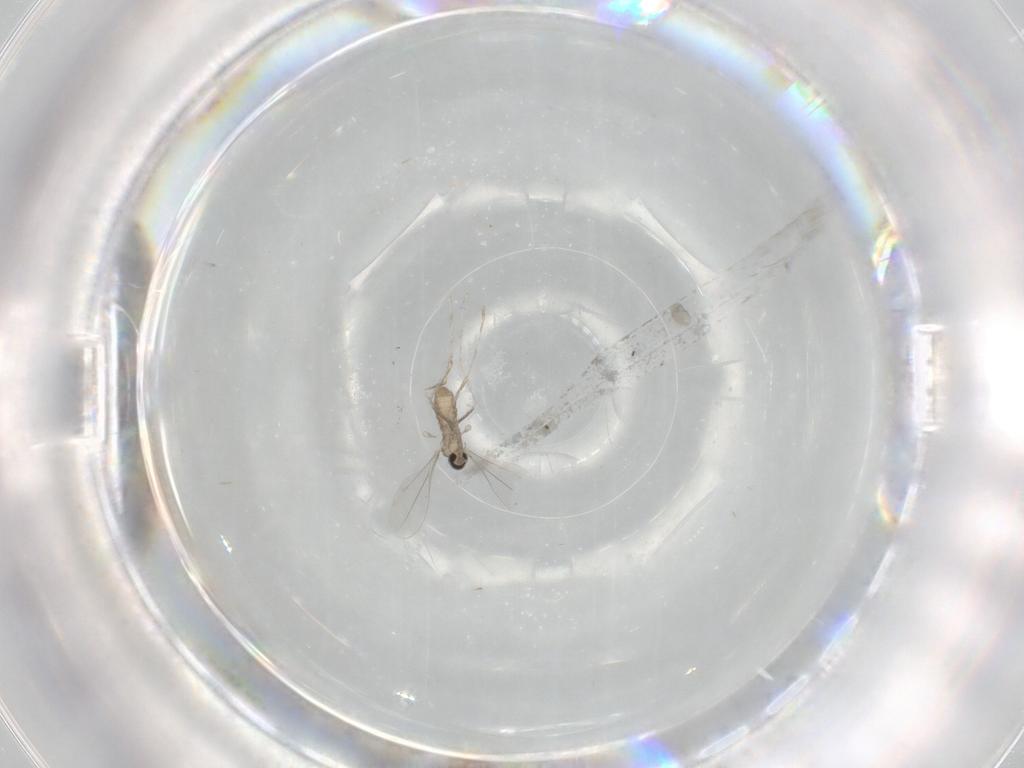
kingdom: Animalia
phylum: Arthropoda
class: Insecta
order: Diptera
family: Cecidomyiidae
